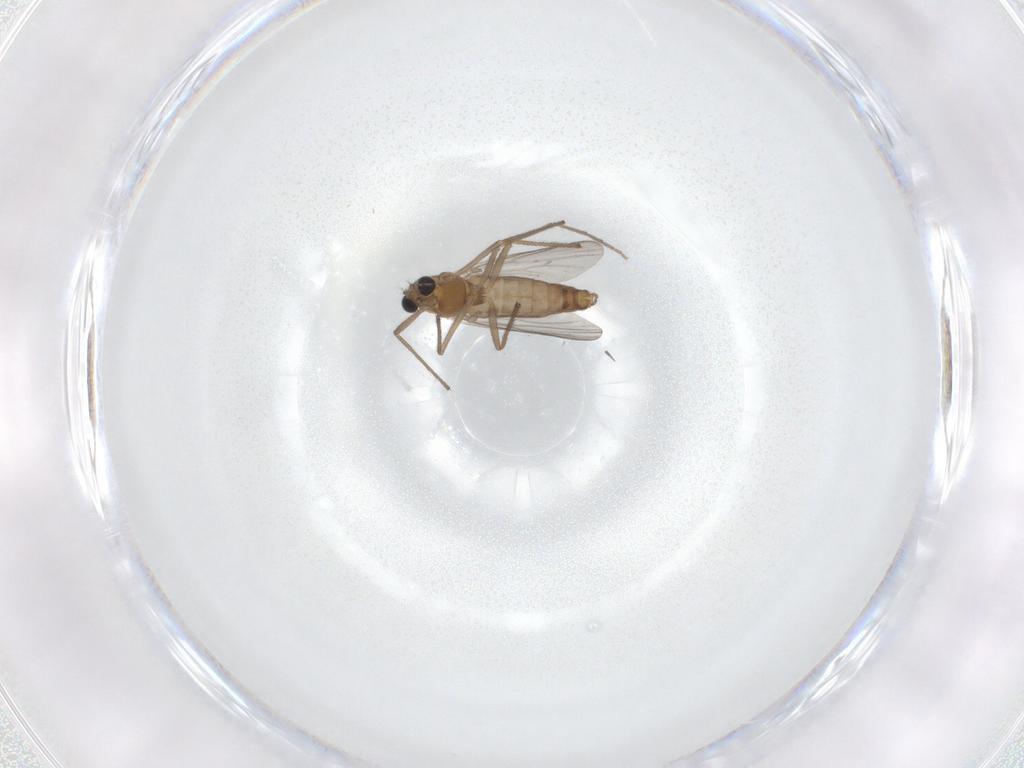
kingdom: Animalia
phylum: Arthropoda
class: Insecta
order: Diptera
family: Chironomidae
